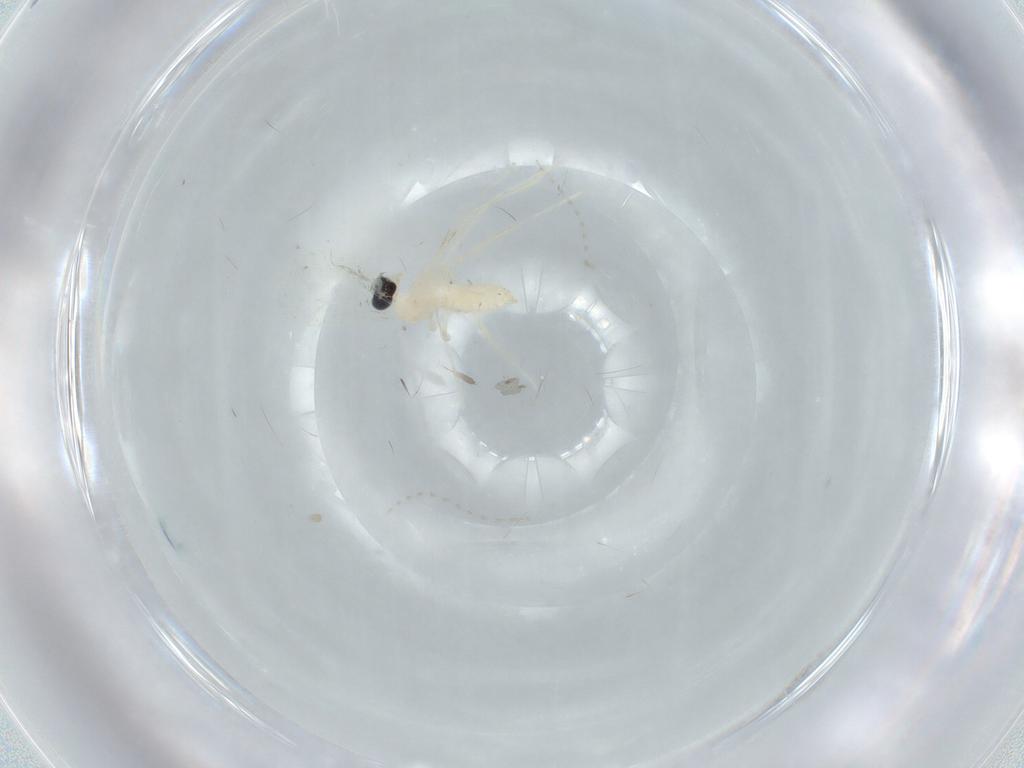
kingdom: Animalia
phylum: Arthropoda
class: Insecta
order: Diptera
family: Cecidomyiidae
